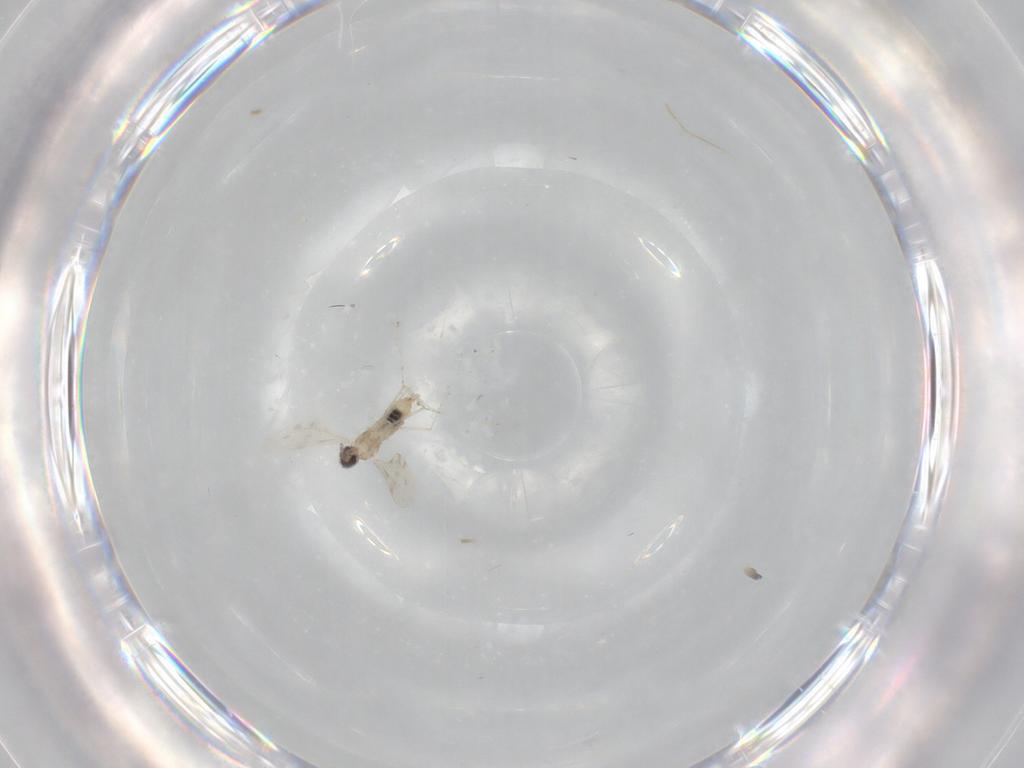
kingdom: Animalia
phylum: Arthropoda
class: Insecta
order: Diptera
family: Cecidomyiidae
